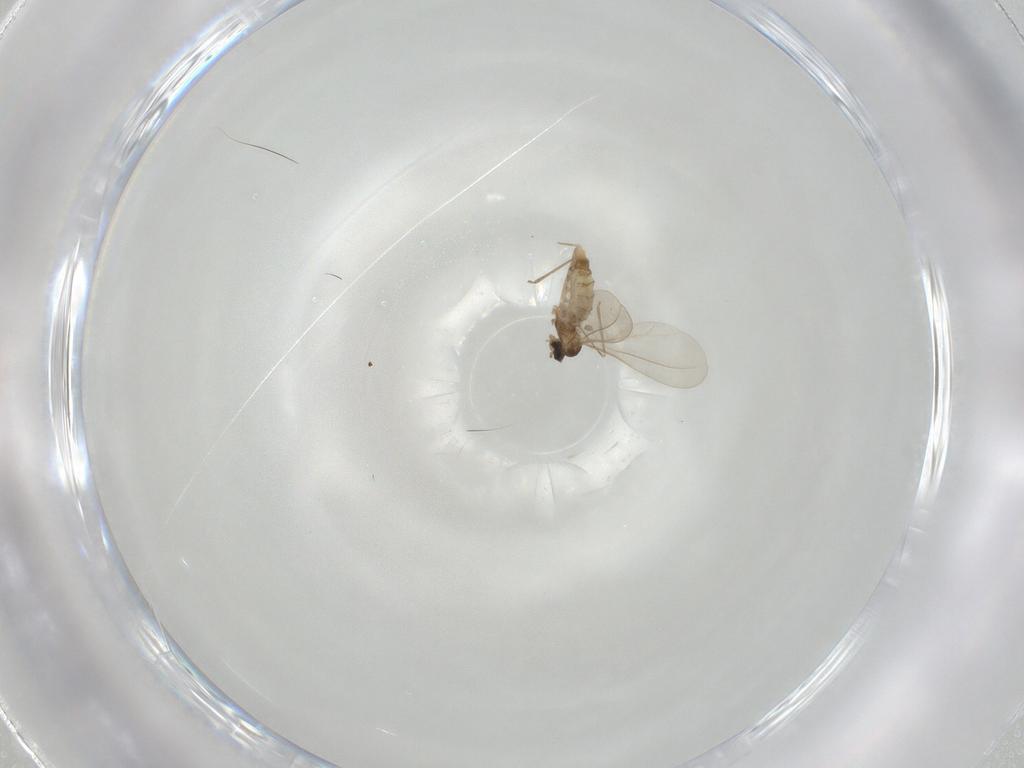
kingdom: Animalia
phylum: Arthropoda
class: Insecta
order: Diptera
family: Cecidomyiidae
